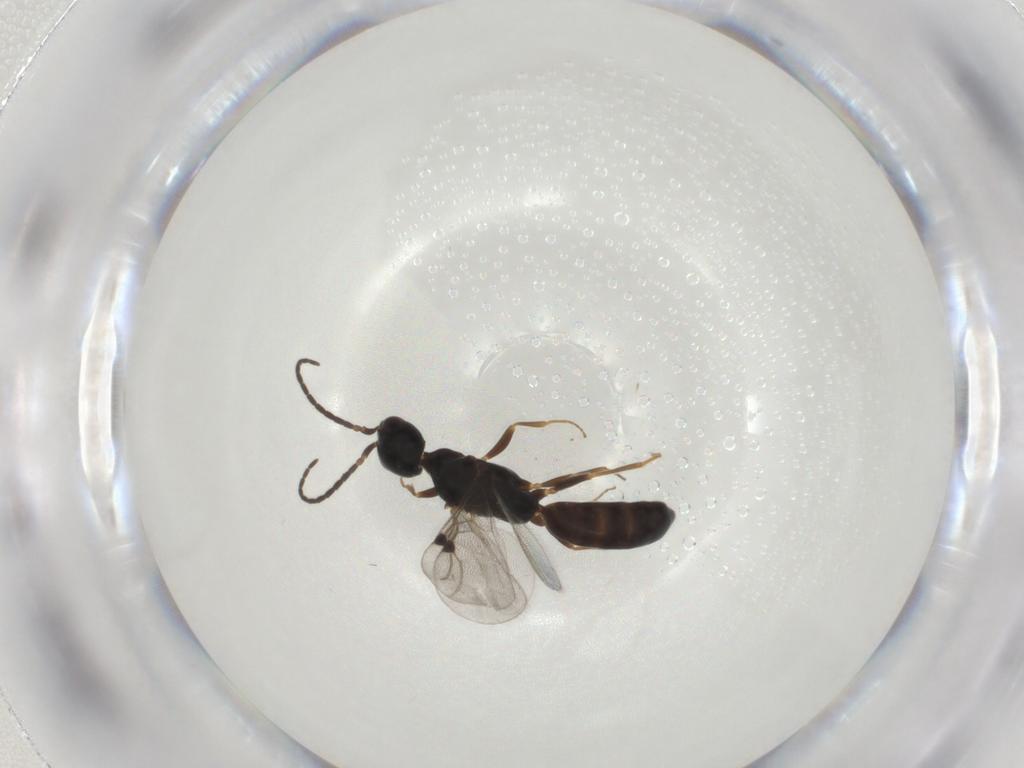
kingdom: Animalia
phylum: Arthropoda
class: Insecta
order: Hymenoptera
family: Bethylidae
